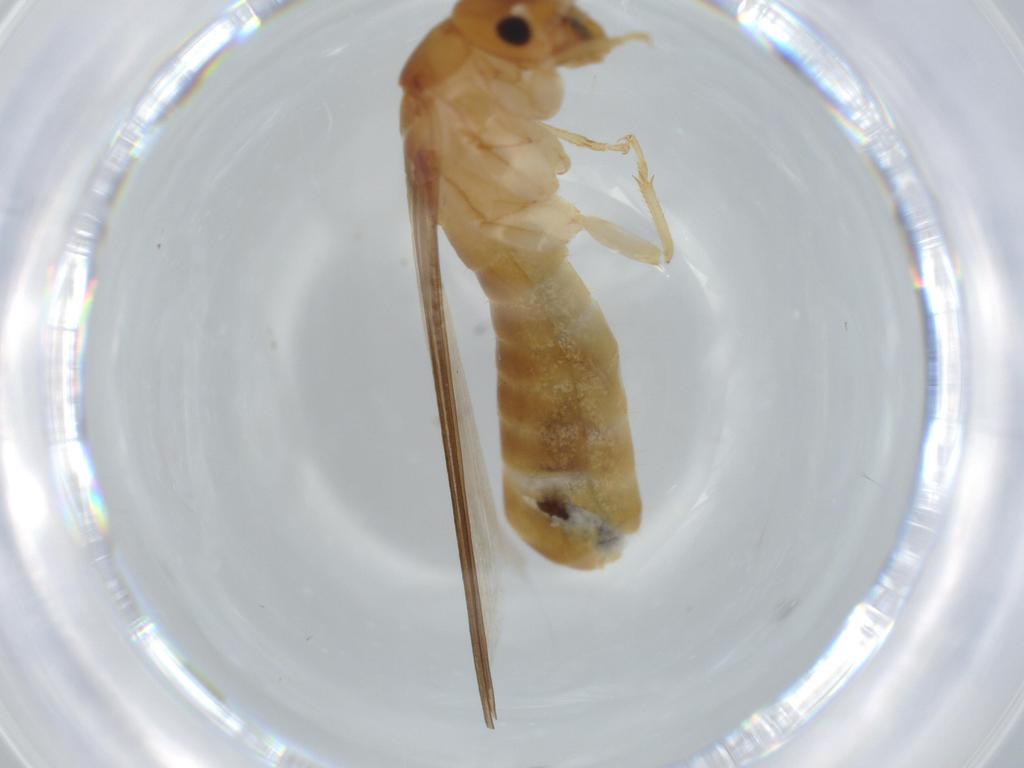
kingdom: Animalia
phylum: Arthropoda
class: Insecta
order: Blattodea
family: Kalotermitidae
